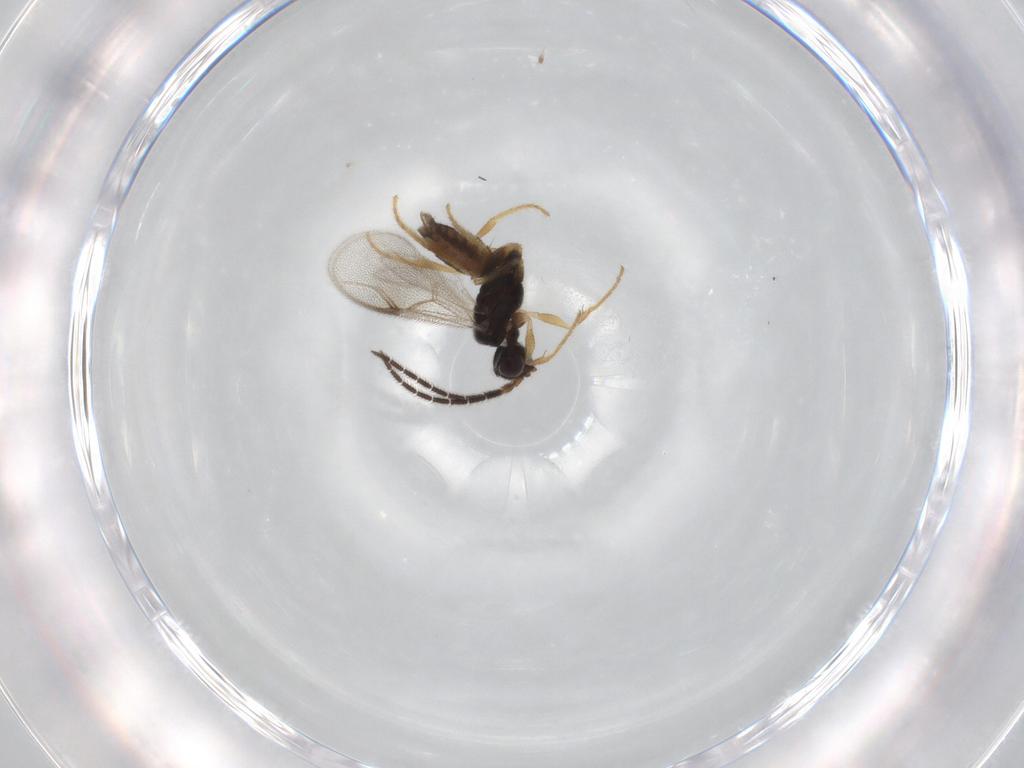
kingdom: Animalia
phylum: Arthropoda
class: Insecta
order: Hymenoptera
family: Dryinidae
